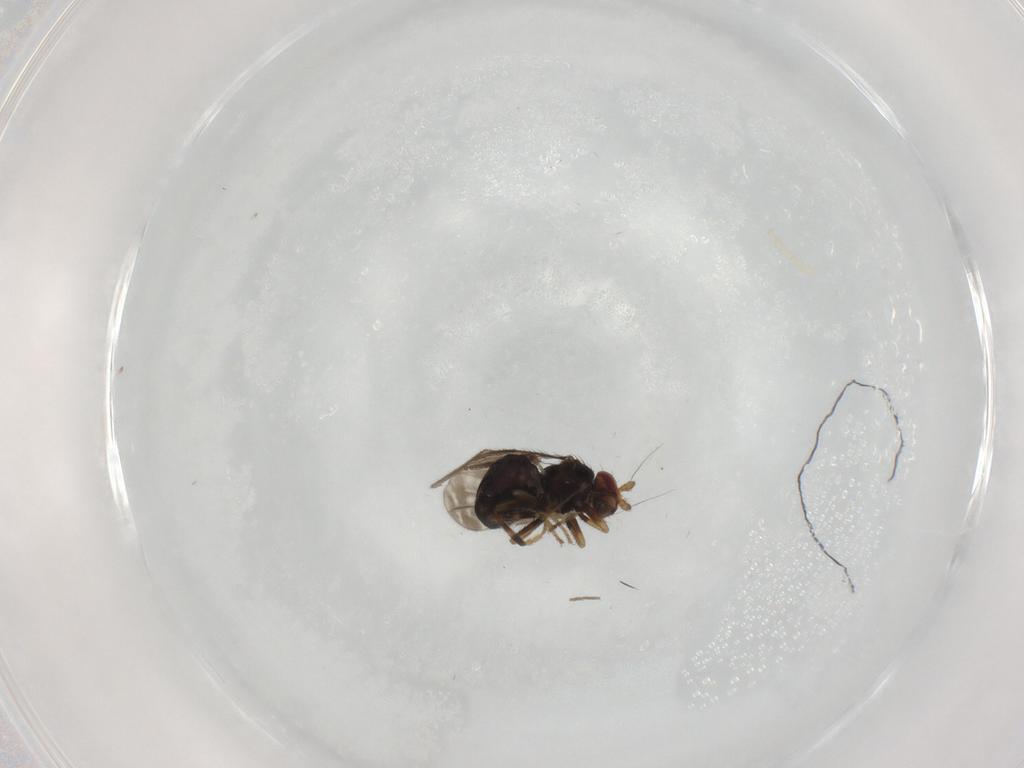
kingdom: Animalia
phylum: Arthropoda
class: Insecta
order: Diptera
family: Sphaeroceridae
